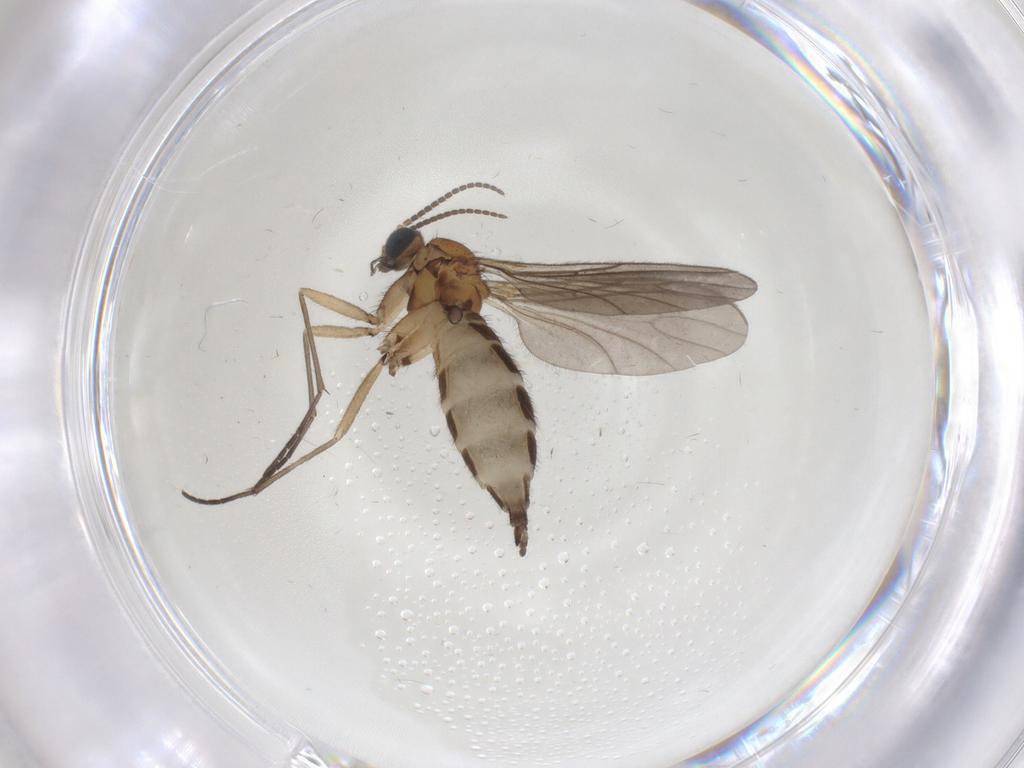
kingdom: Animalia
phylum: Arthropoda
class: Insecta
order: Diptera
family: Sciaridae
